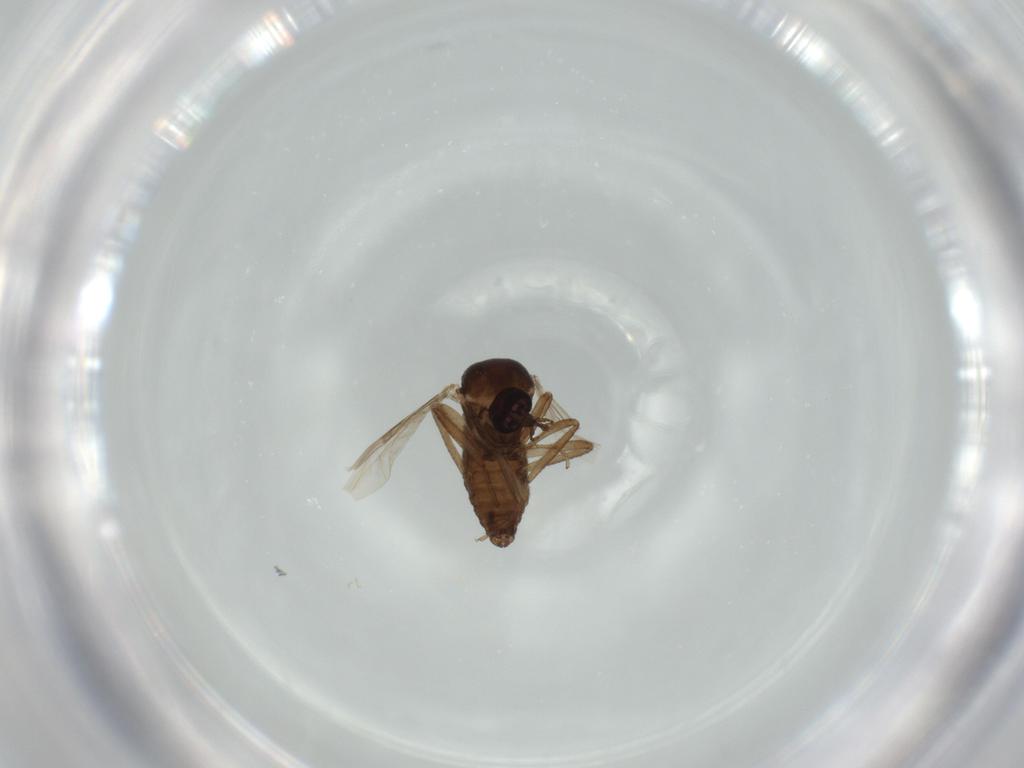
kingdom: Animalia
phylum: Arthropoda
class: Insecta
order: Diptera
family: Ceratopogonidae
